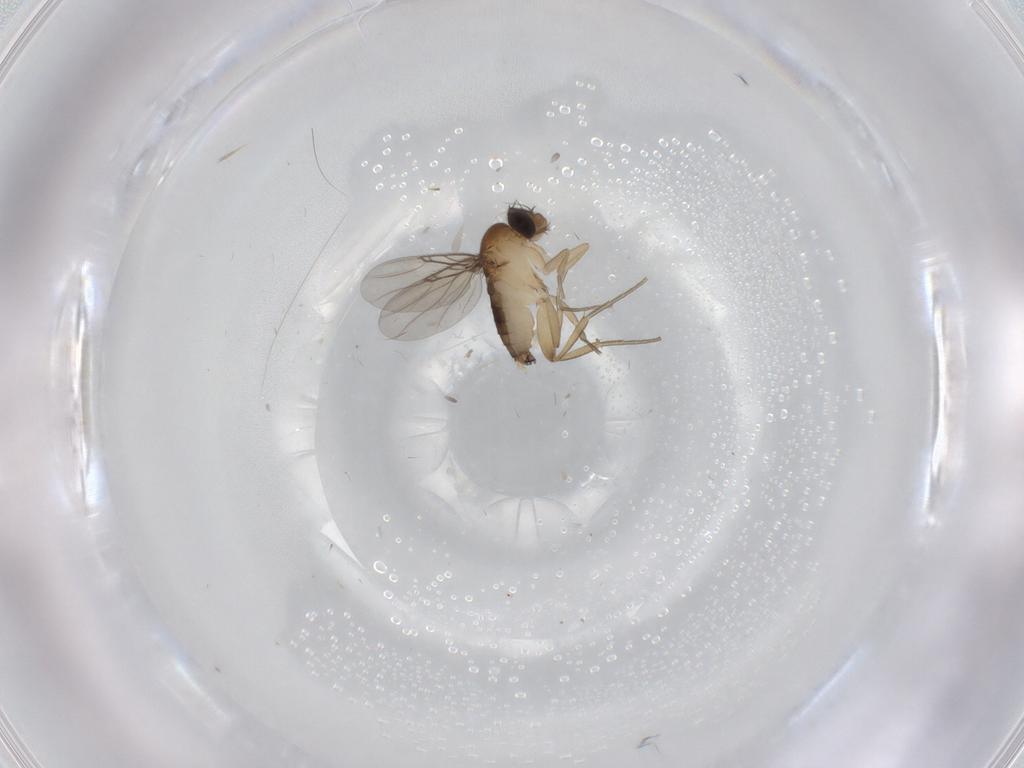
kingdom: Animalia
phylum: Arthropoda
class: Insecta
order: Diptera
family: Phoridae
